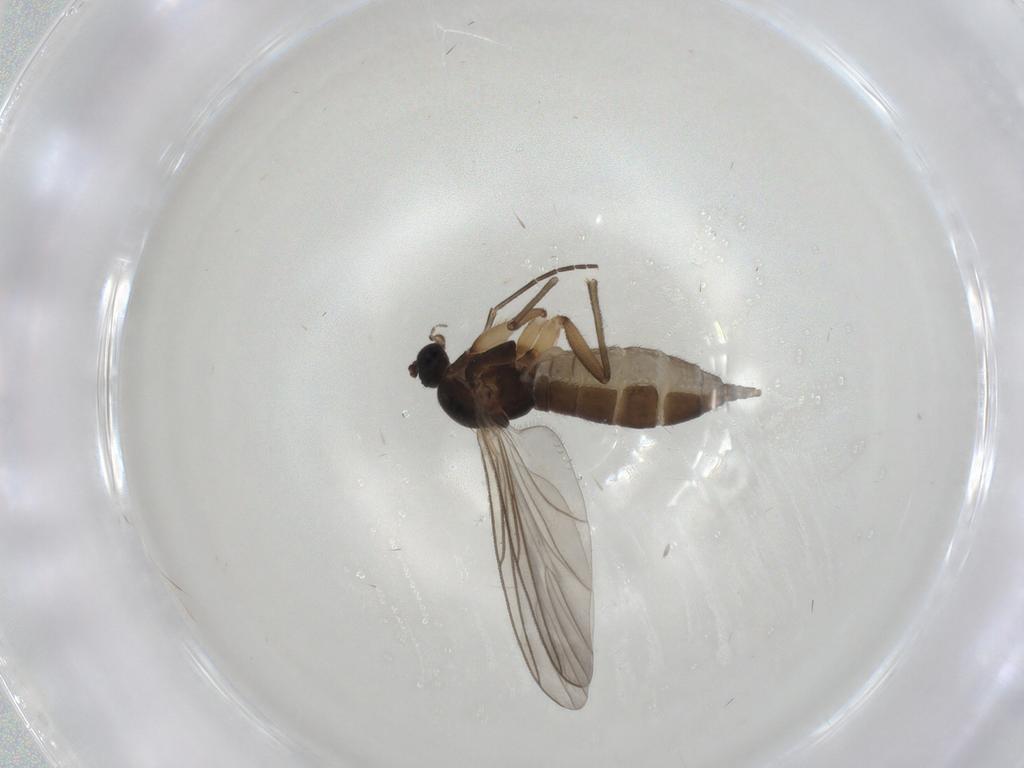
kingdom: Animalia
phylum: Arthropoda
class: Insecta
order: Diptera
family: Sciaridae
